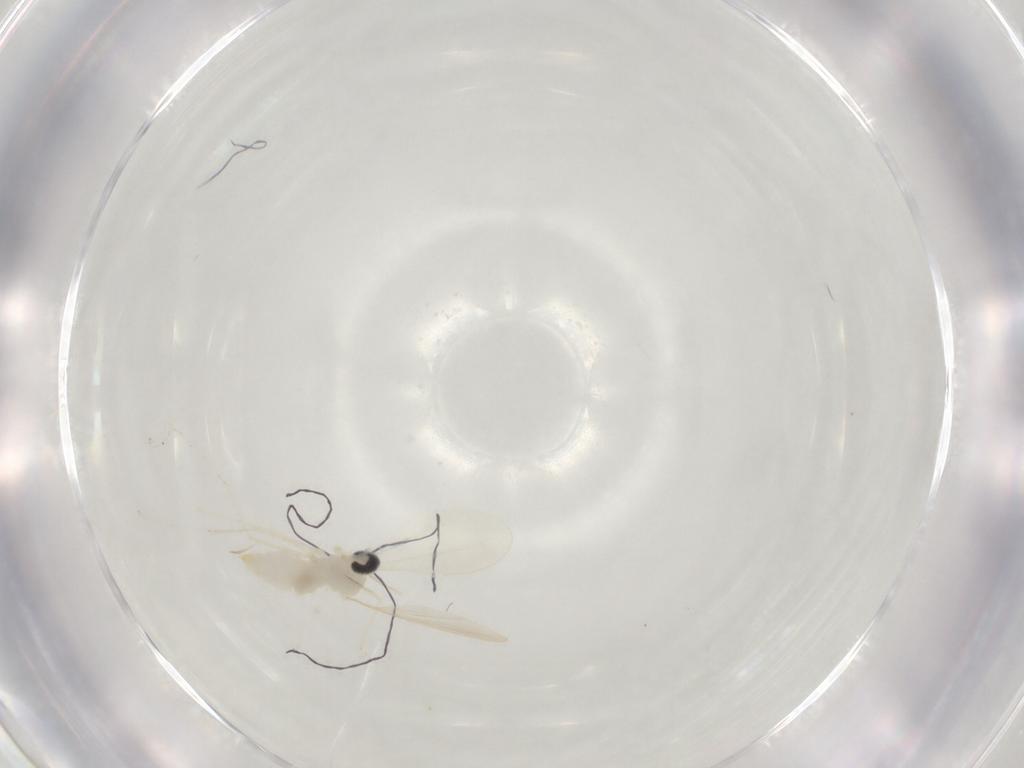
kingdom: Animalia
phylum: Arthropoda
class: Insecta
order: Diptera
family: Cecidomyiidae
